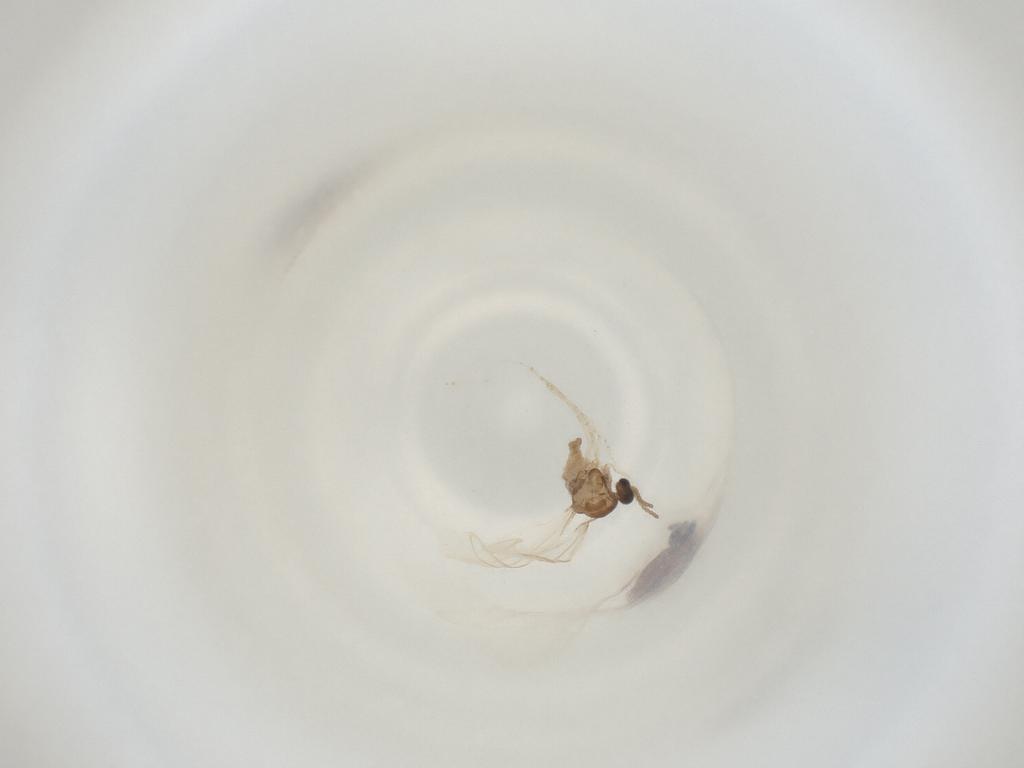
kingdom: Animalia
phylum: Arthropoda
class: Insecta
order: Diptera
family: Cecidomyiidae
